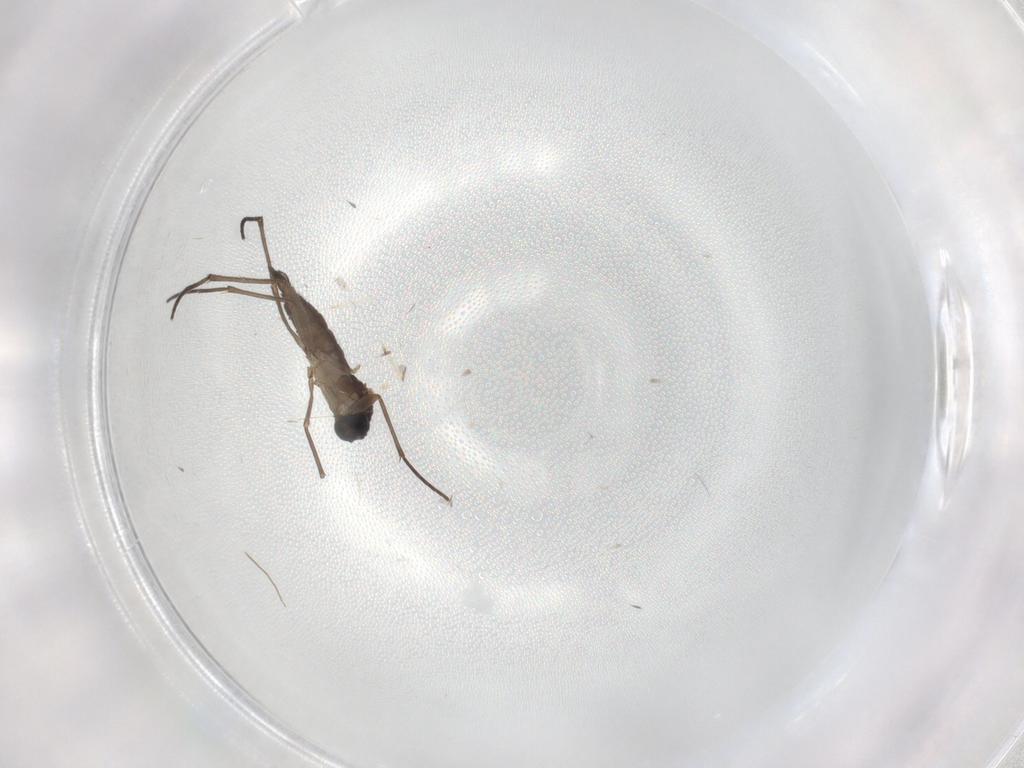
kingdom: Animalia
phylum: Arthropoda
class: Insecta
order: Diptera
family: Sciaridae
